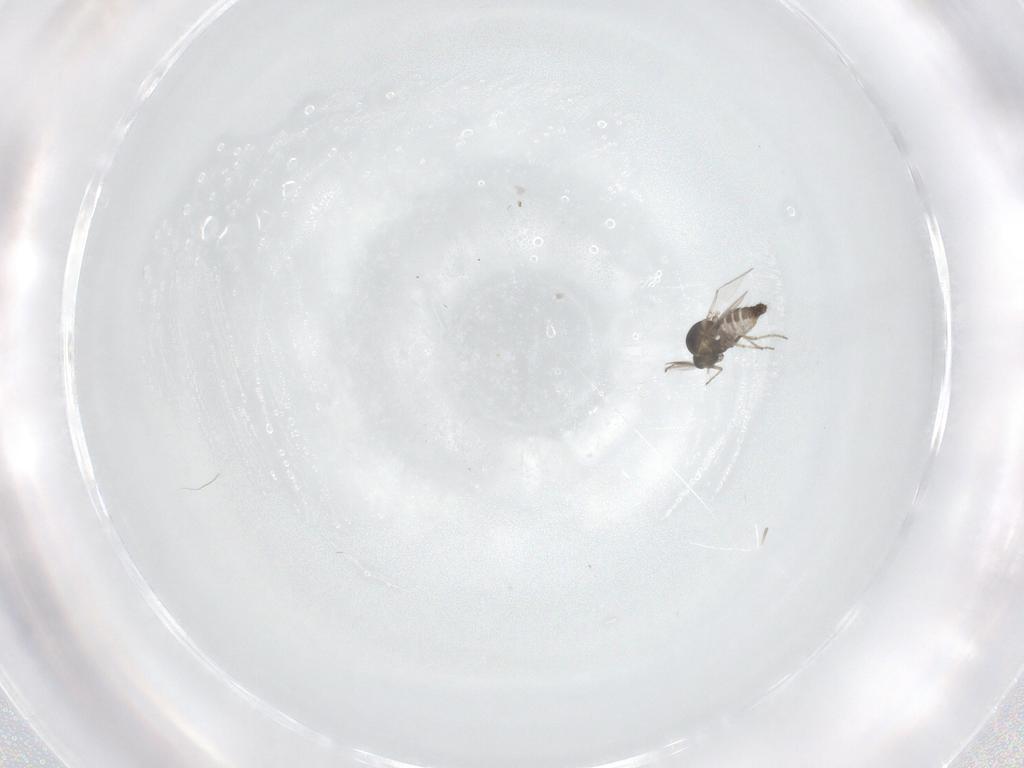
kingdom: Animalia
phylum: Arthropoda
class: Insecta
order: Diptera
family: Ceratopogonidae
